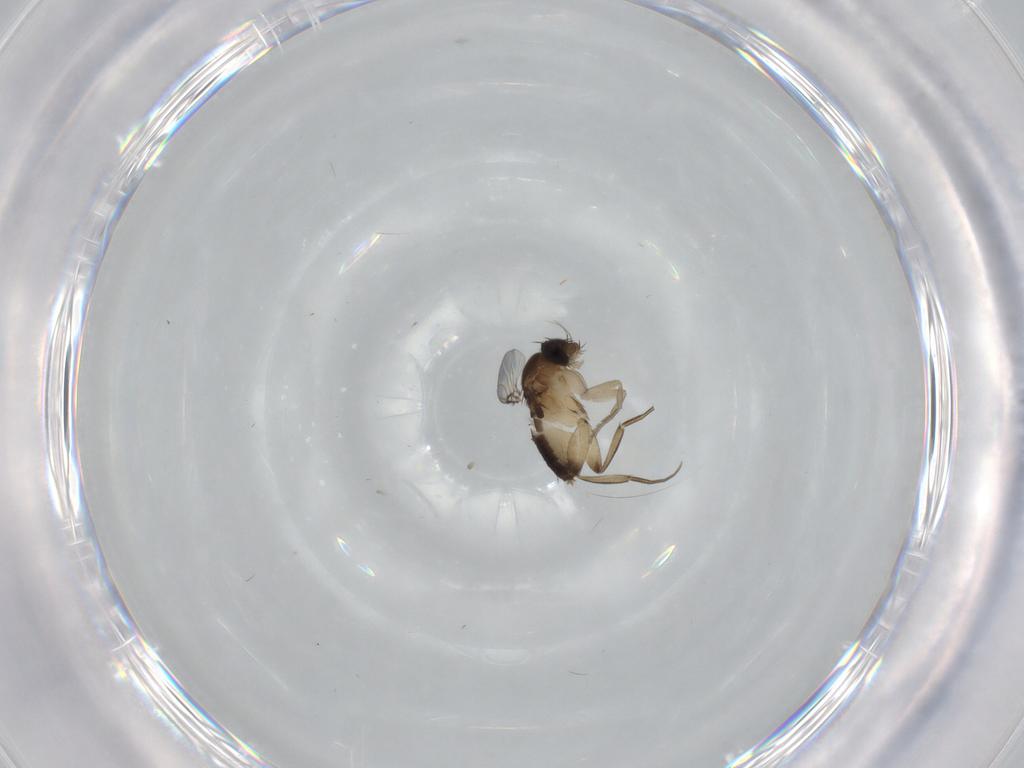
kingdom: Animalia
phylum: Arthropoda
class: Insecta
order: Diptera
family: Phoridae
